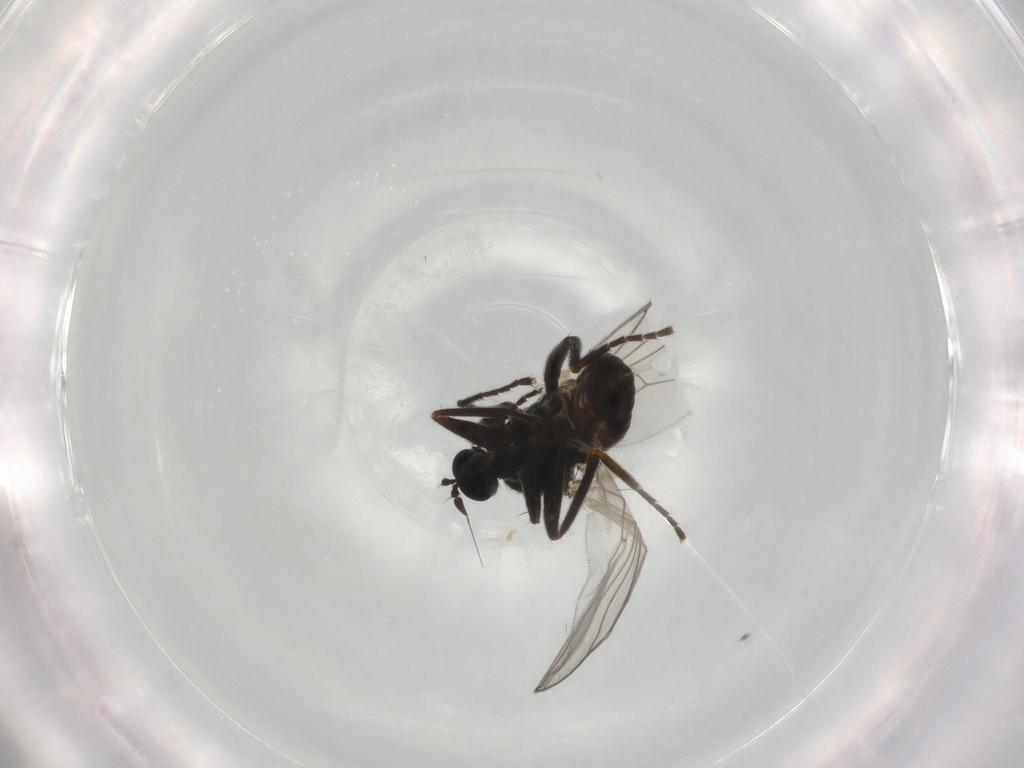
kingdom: Animalia
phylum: Arthropoda
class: Insecta
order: Diptera
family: Hybotidae
